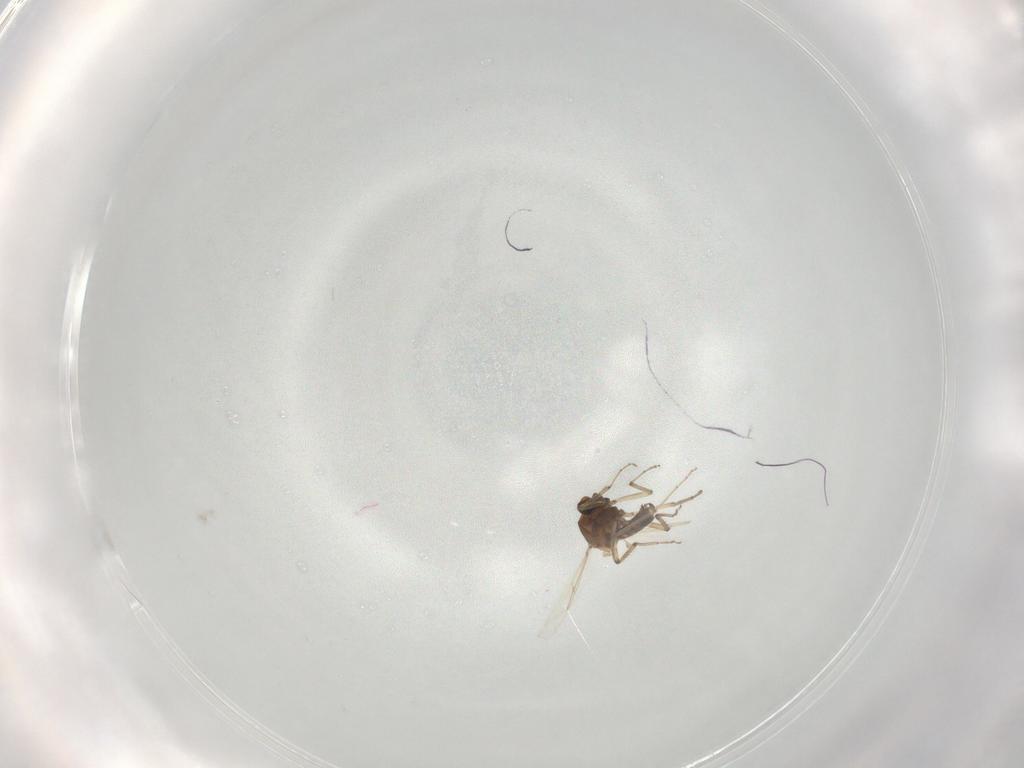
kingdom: Animalia
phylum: Arthropoda
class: Insecta
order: Diptera
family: Ceratopogonidae
